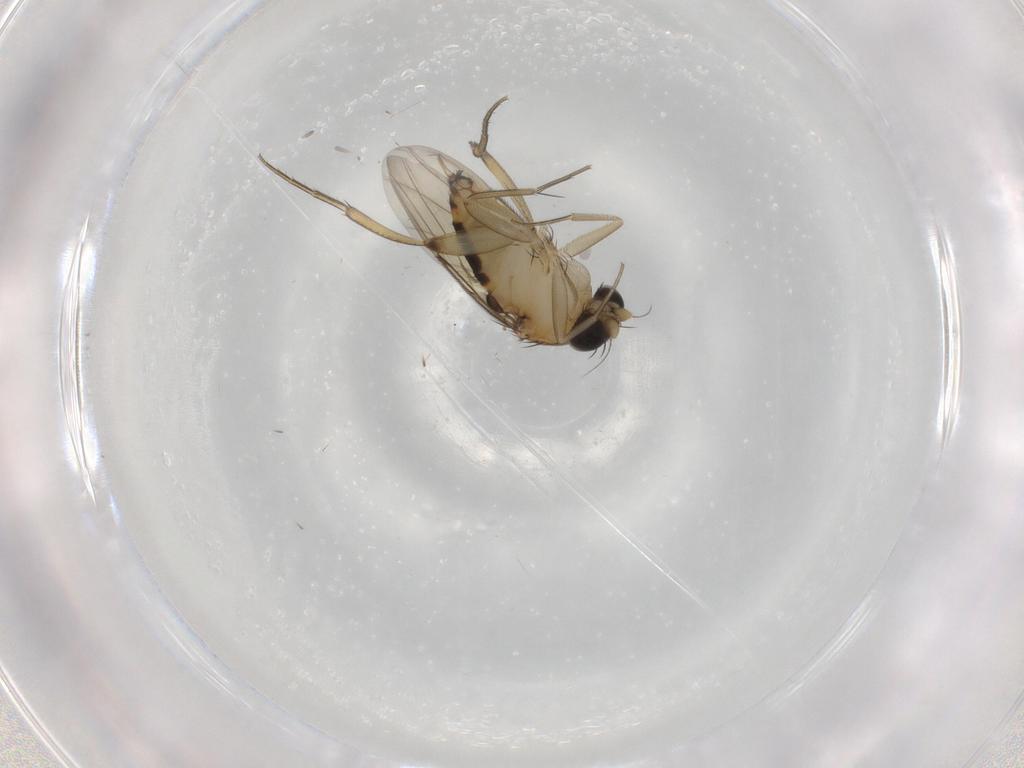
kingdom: Animalia
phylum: Arthropoda
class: Insecta
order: Diptera
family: Phoridae
